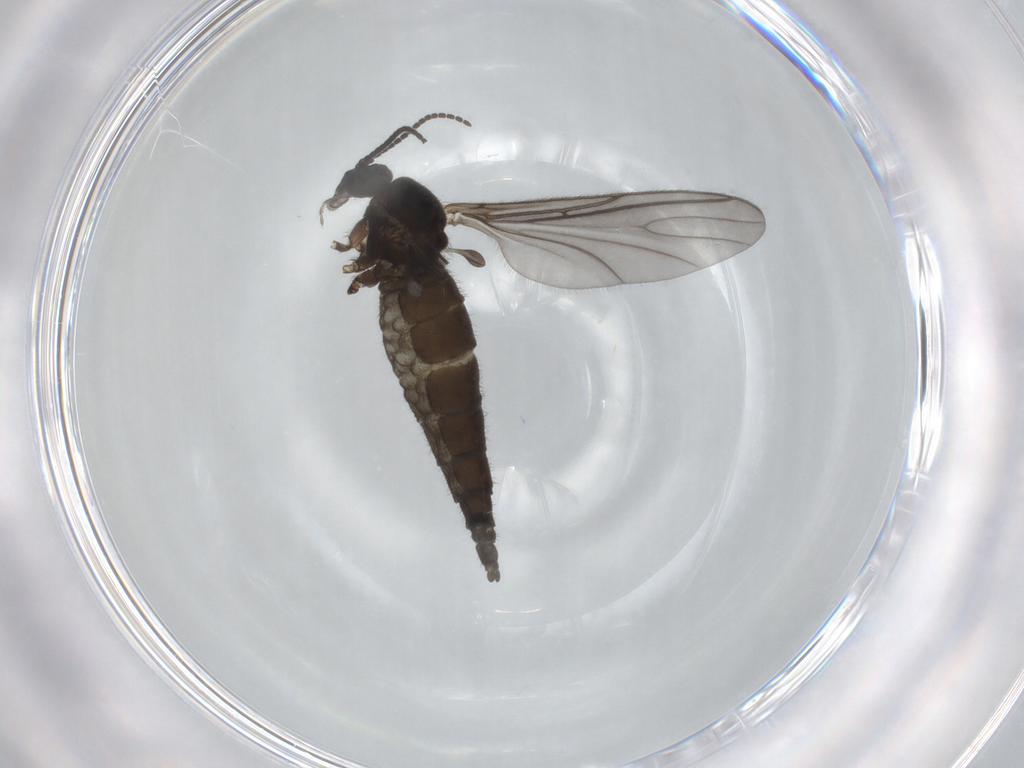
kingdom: Animalia
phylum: Arthropoda
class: Insecta
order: Diptera
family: Sciaridae
